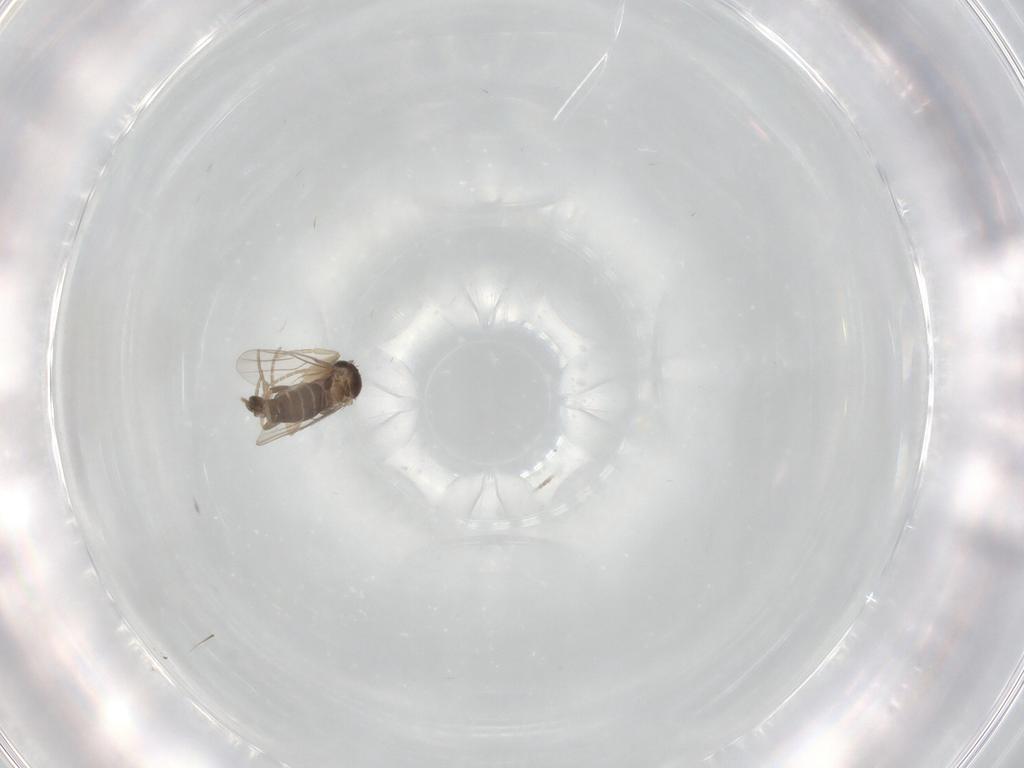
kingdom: Animalia
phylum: Arthropoda
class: Insecta
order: Diptera
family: Phoridae
